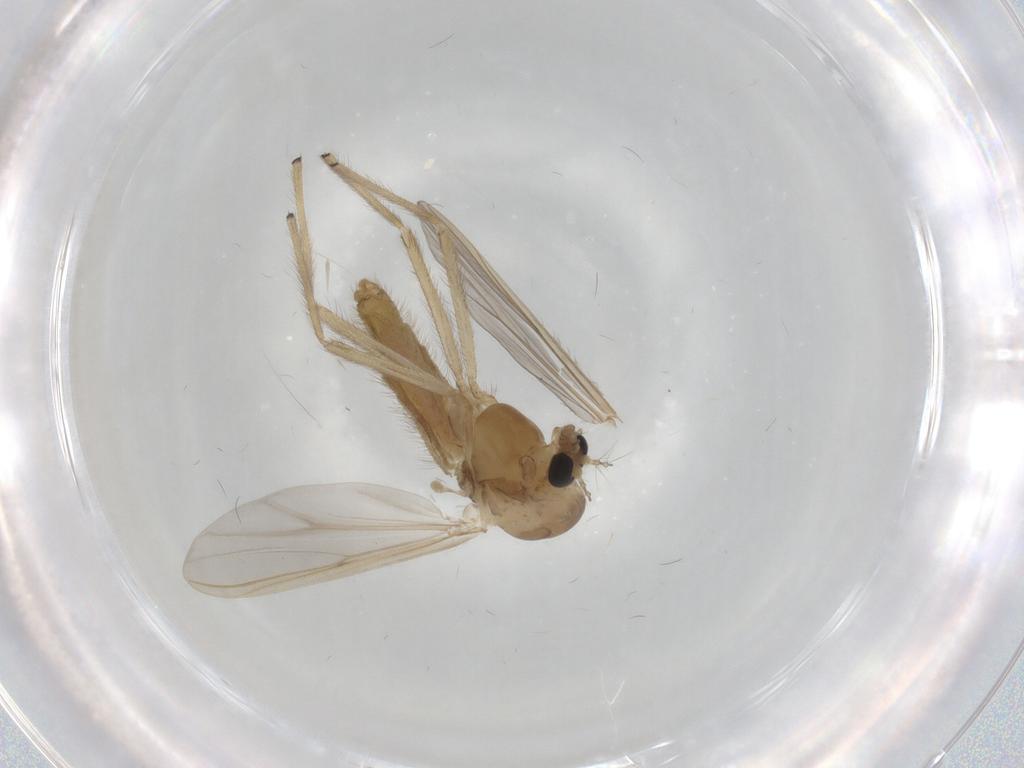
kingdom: Animalia
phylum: Arthropoda
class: Insecta
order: Diptera
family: Chironomidae
